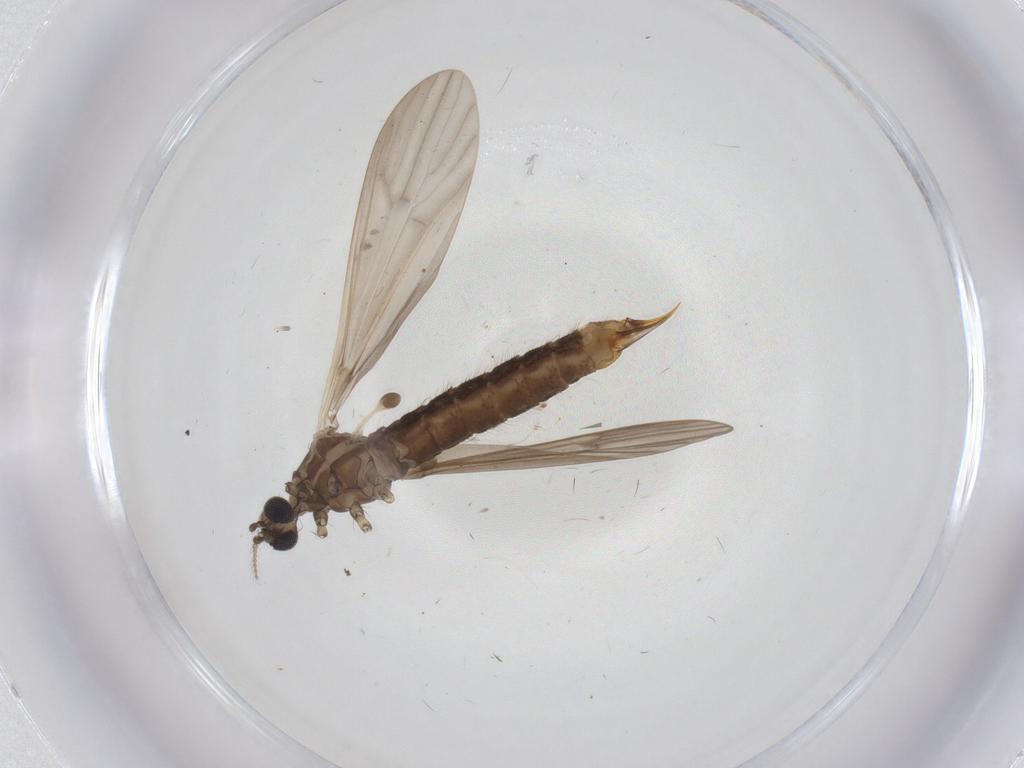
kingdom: Animalia
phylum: Arthropoda
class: Insecta
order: Diptera
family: Limoniidae
